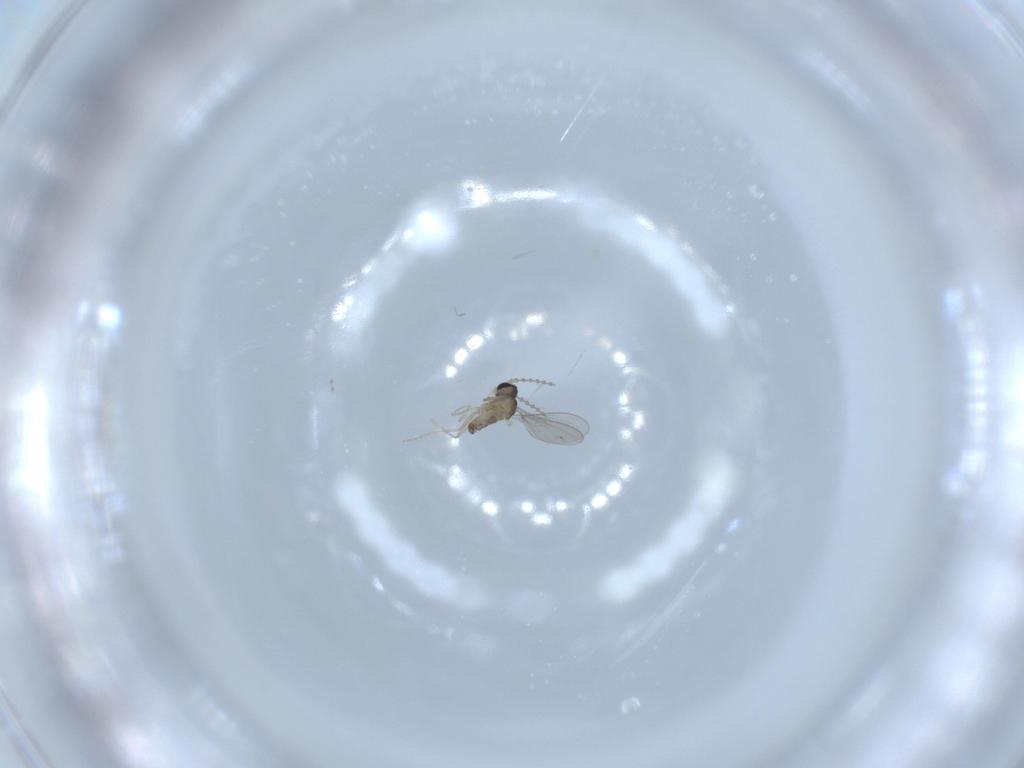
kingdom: Animalia
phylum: Arthropoda
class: Insecta
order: Diptera
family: Cecidomyiidae
